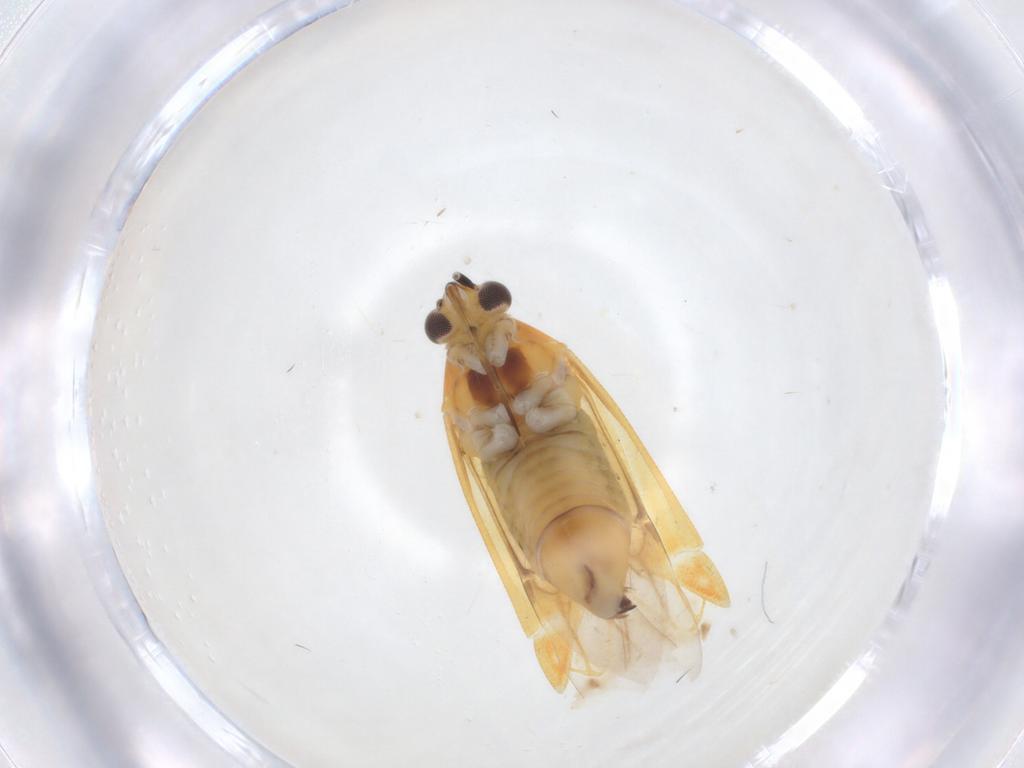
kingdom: Animalia
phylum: Arthropoda
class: Insecta
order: Hemiptera
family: Miridae
